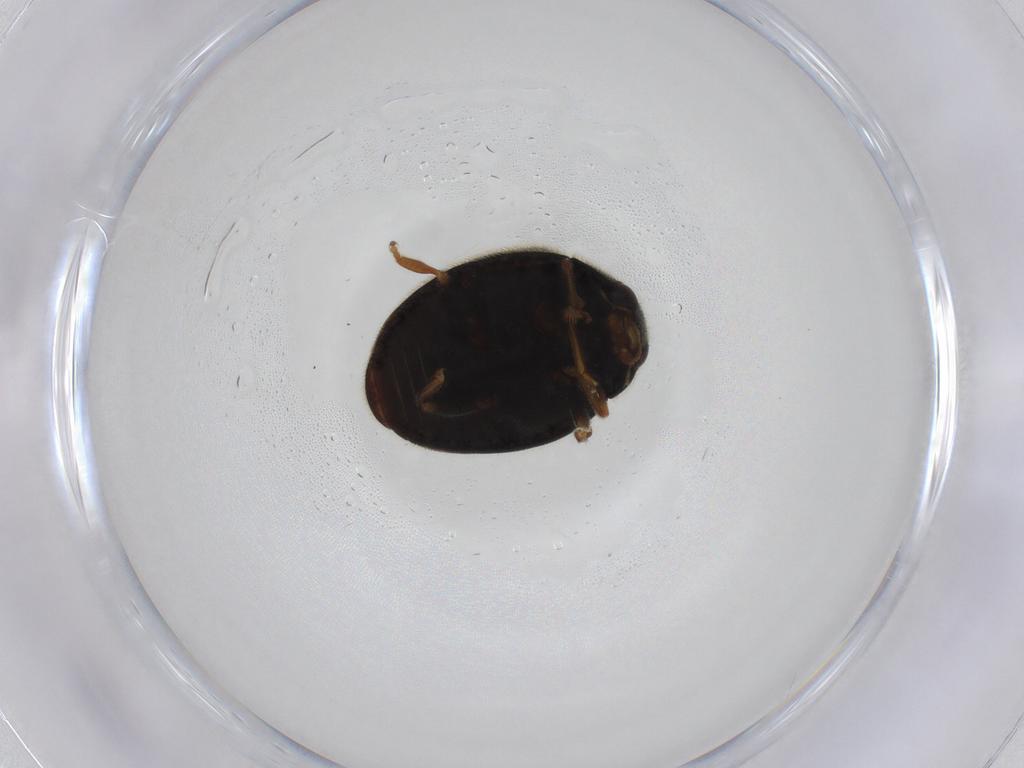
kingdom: Animalia
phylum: Arthropoda
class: Insecta
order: Coleoptera
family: Coccinellidae
